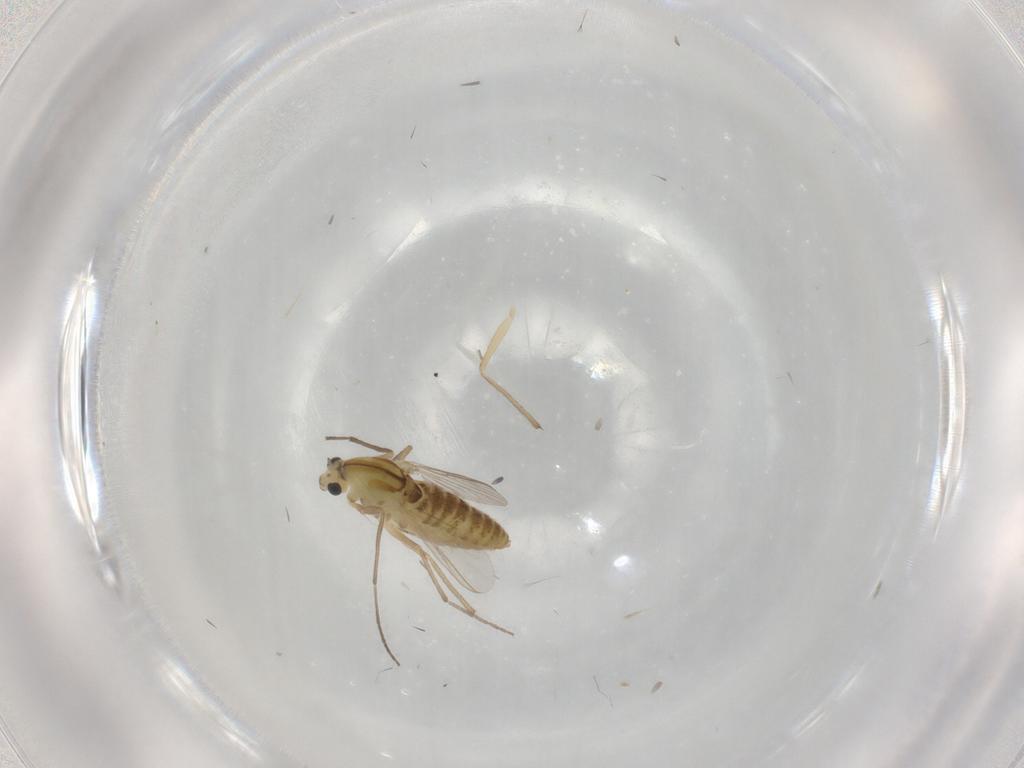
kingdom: Animalia
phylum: Arthropoda
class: Insecta
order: Diptera
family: Chironomidae
